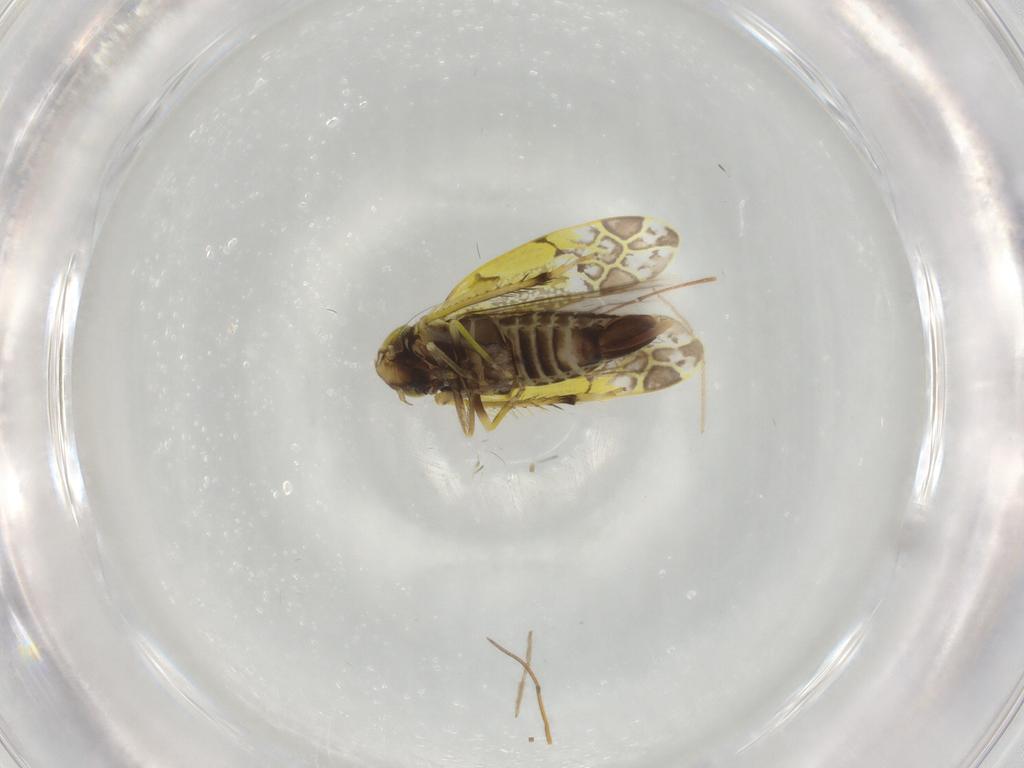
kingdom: Animalia
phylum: Arthropoda
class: Insecta
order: Hemiptera
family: Cicadellidae
